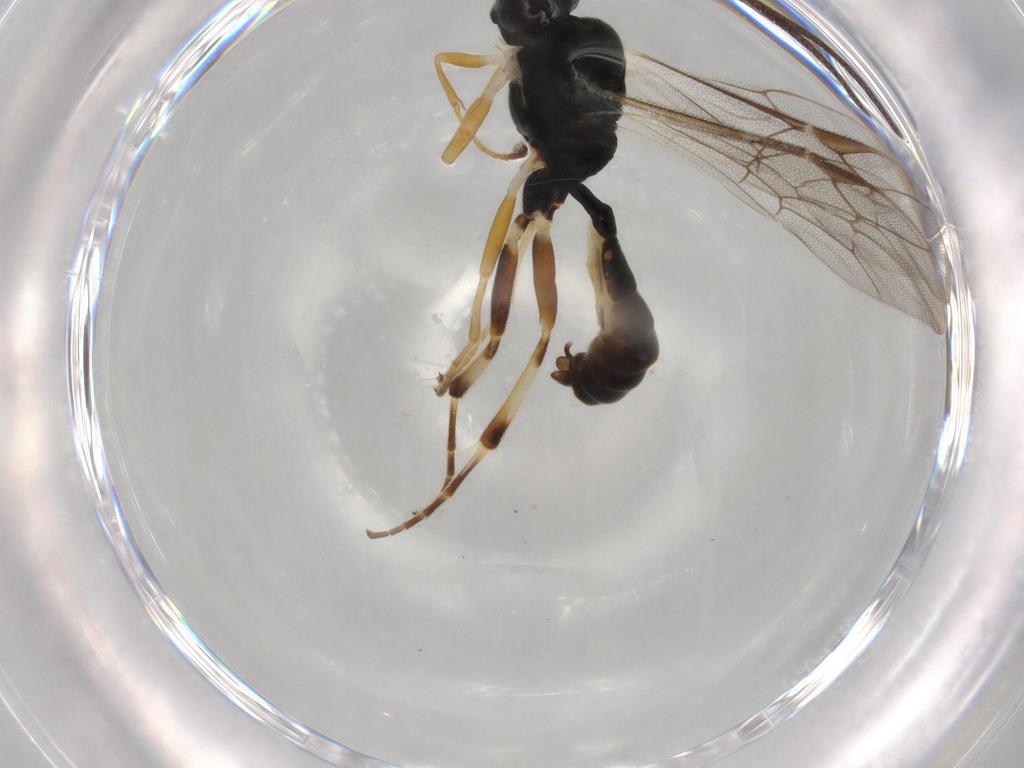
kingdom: Animalia
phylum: Arthropoda
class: Insecta
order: Hymenoptera
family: Ichneumonidae
